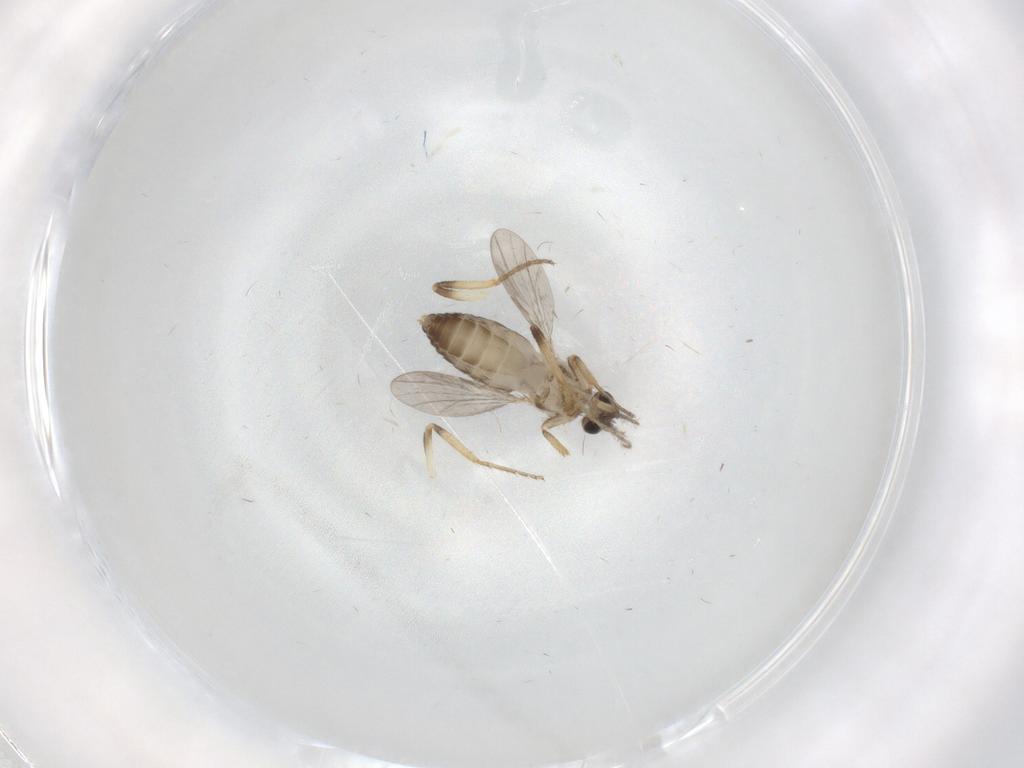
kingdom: Animalia
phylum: Arthropoda
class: Insecta
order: Diptera
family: Ceratopogonidae
